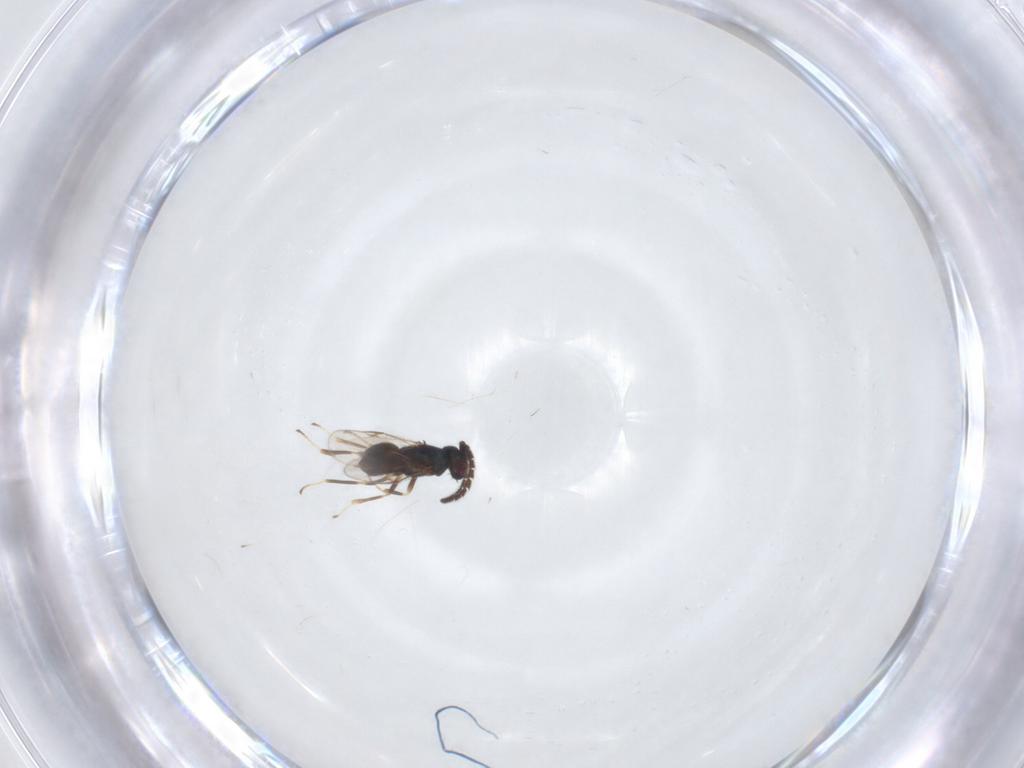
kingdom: Animalia
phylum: Arthropoda
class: Insecta
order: Hymenoptera
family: Encyrtidae
